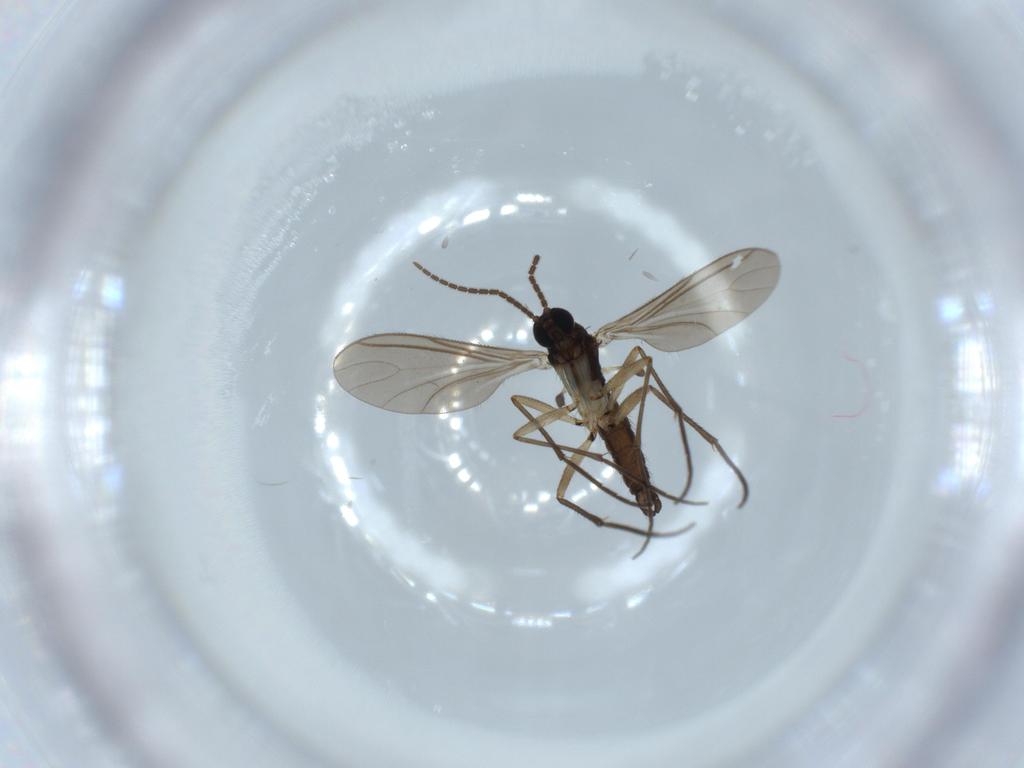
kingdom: Animalia
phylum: Arthropoda
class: Insecta
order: Diptera
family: Sciaridae
